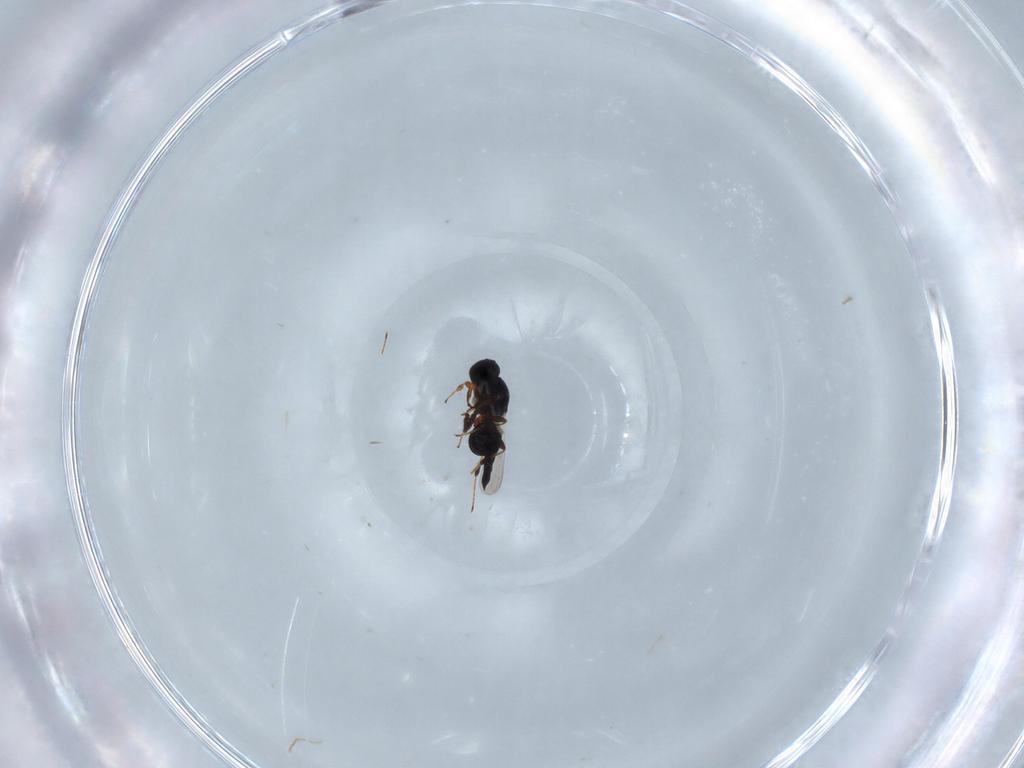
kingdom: Animalia
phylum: Arthropoda
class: Insecta
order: Hymenoptera
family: Platygastridae
